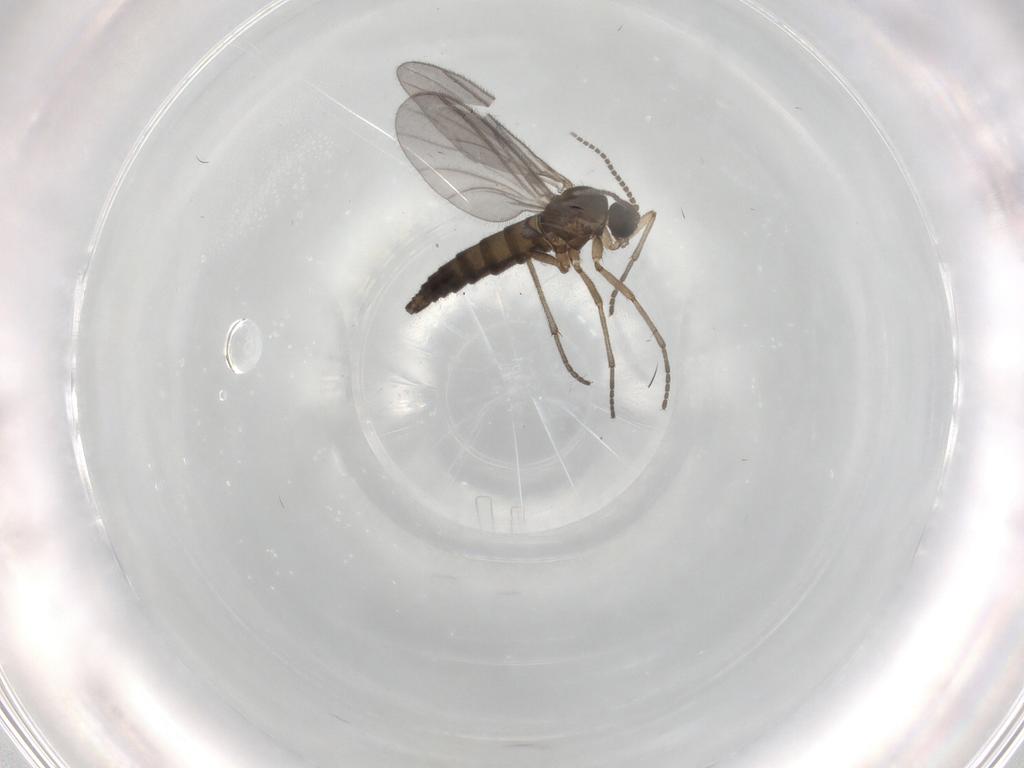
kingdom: Animalia
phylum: Arthropoda
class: Insecta
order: Diptera
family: Sciaridae
